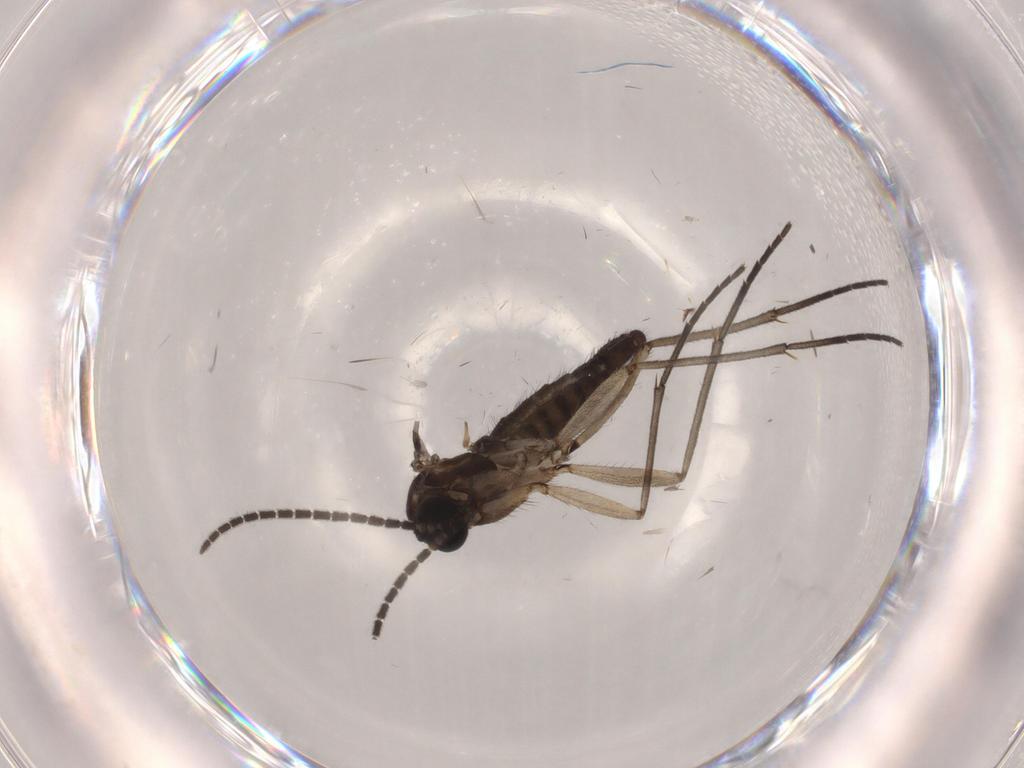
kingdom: Animalia
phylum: Arthropoda
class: Insecta
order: Diptera
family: Sciaridae
